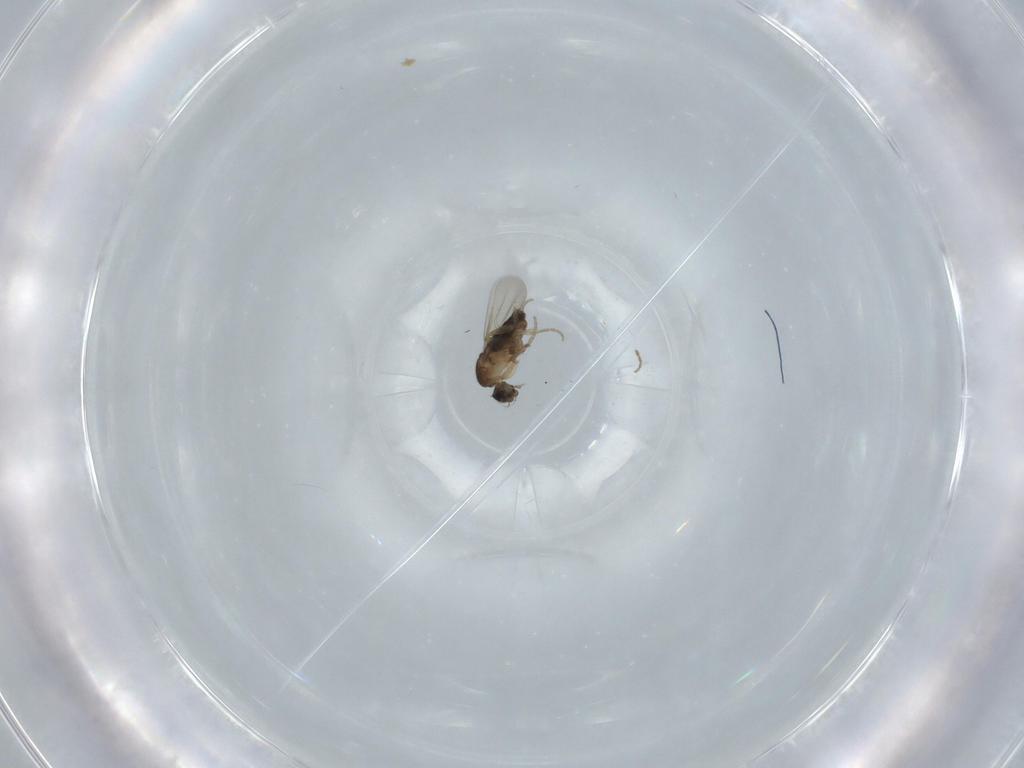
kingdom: Animalia
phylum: Arthropoda
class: Insecta
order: Diptera
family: Phoridae
